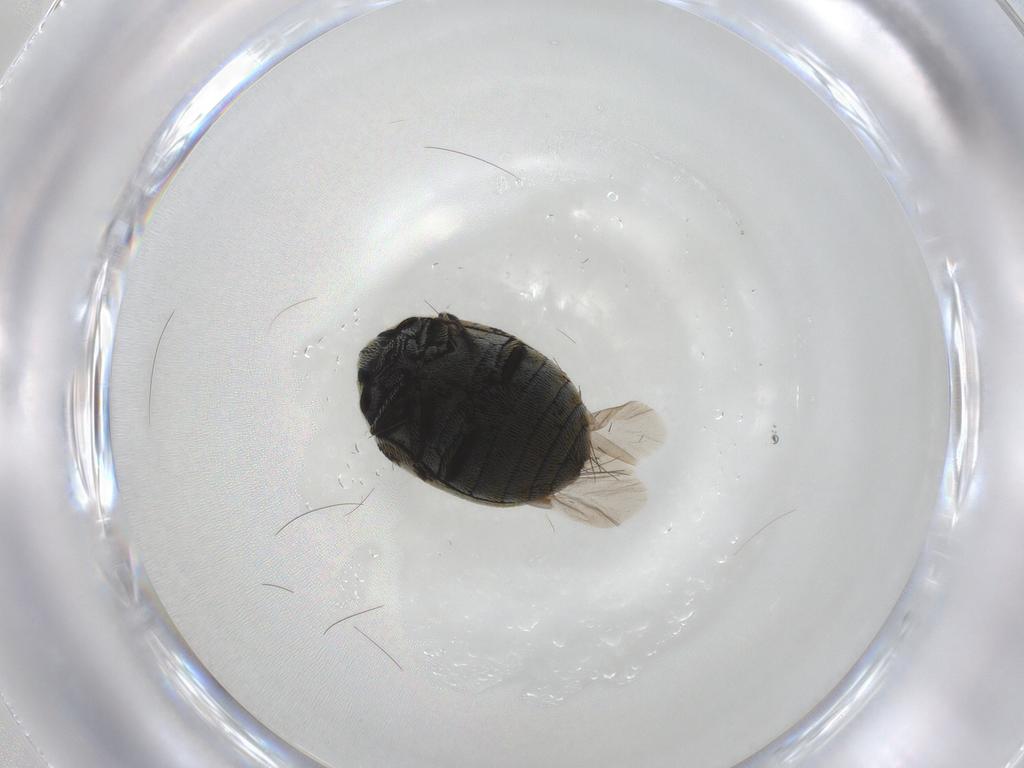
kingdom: Animalia
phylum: Arthropoda
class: Insecta
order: Coleoptera
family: Dermestidae
